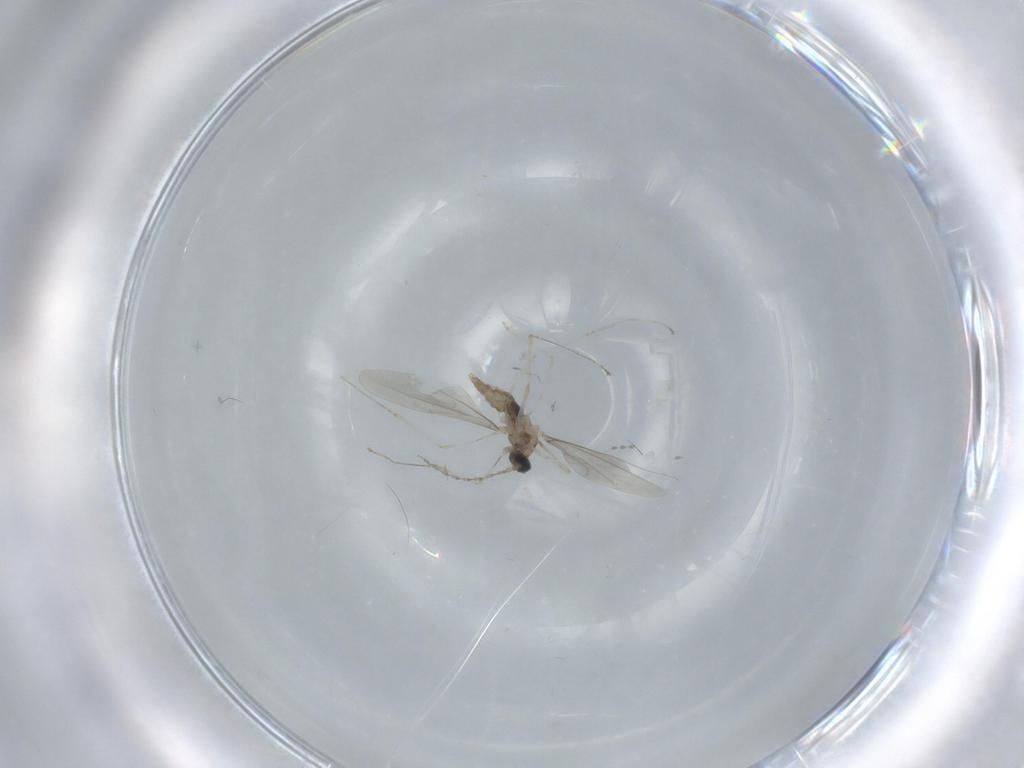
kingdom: Animalia
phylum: Arthropoda
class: Insecta
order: Diptera
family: Cecidomyiidae
